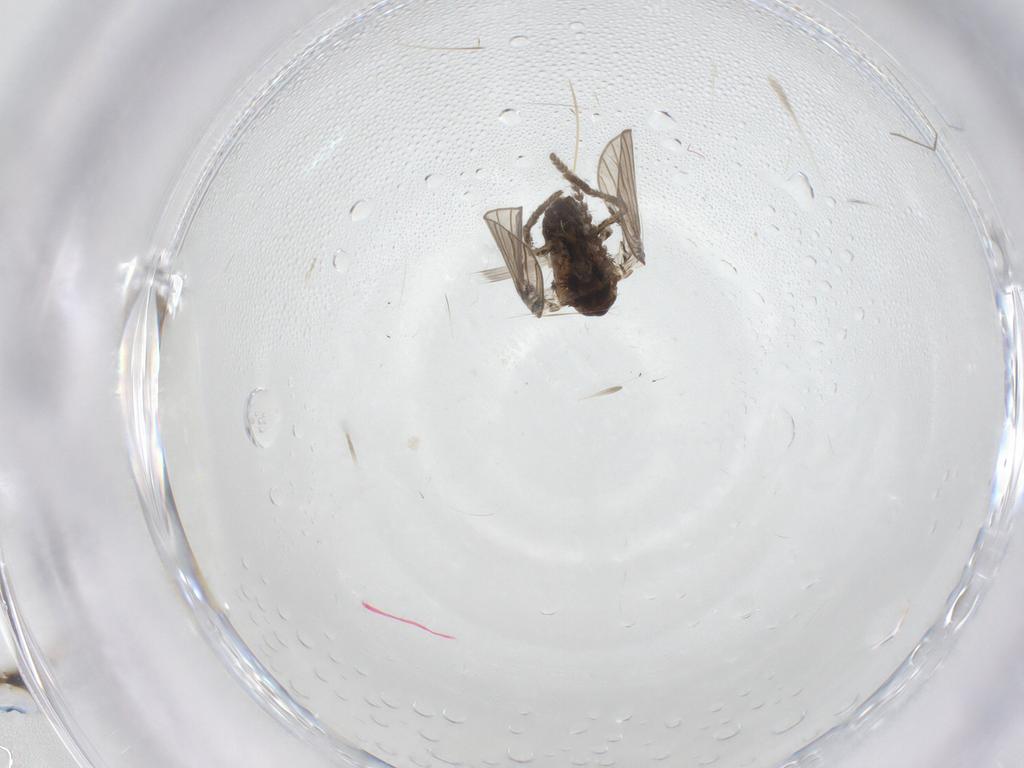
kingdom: Animalia
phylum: Arthropoda
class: Insecta
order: Diptera
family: Psychodidae
